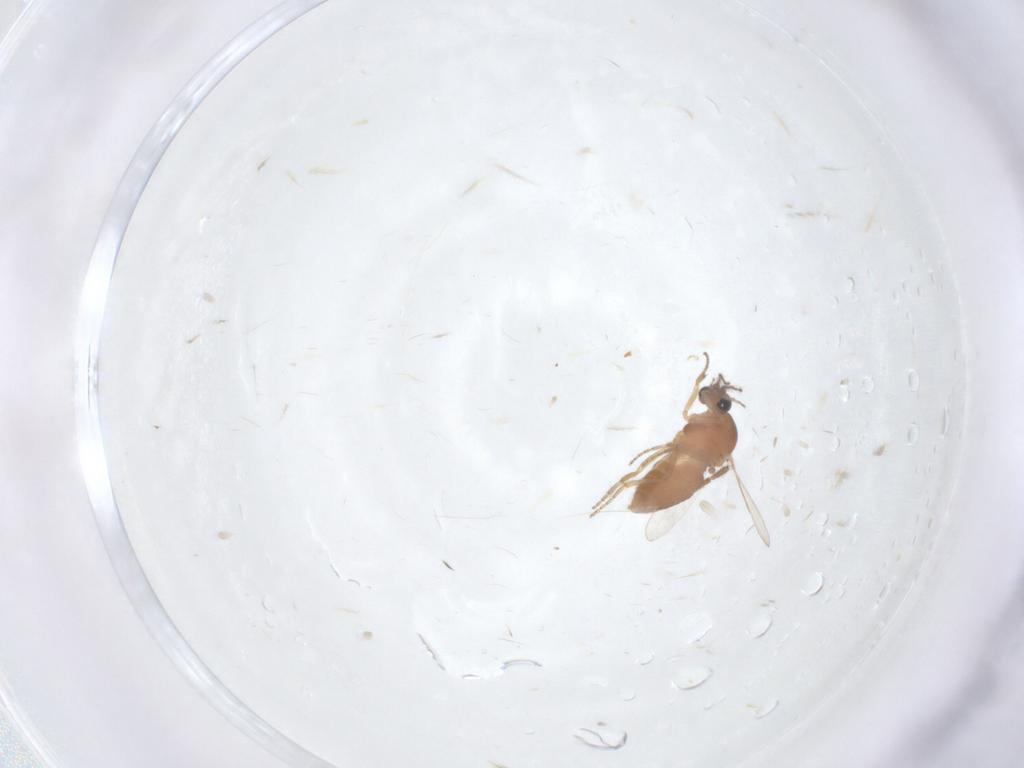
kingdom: Animalia
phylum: Arthropoda
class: Insecta
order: Diptera
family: Ceratopogonidae
